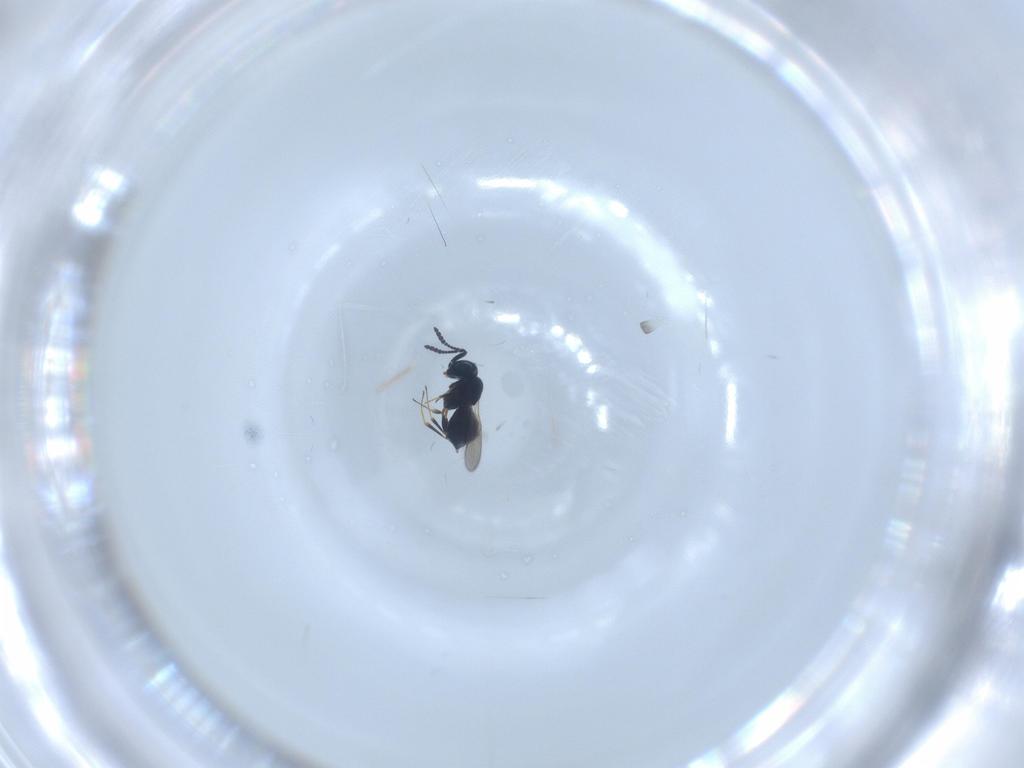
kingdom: Animalia
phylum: Arthropoda
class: Insecta
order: Hymenoptera
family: Scelionidae
